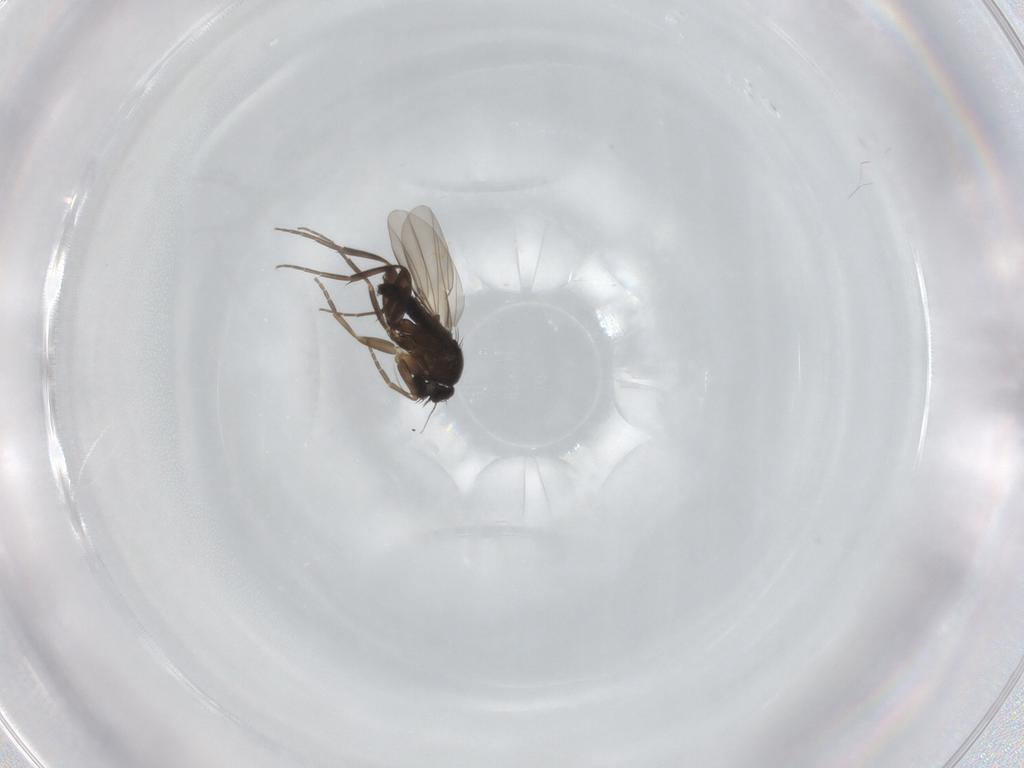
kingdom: Animalia
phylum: Arthropoda
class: Insecta
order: Diptera
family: Phoridae
